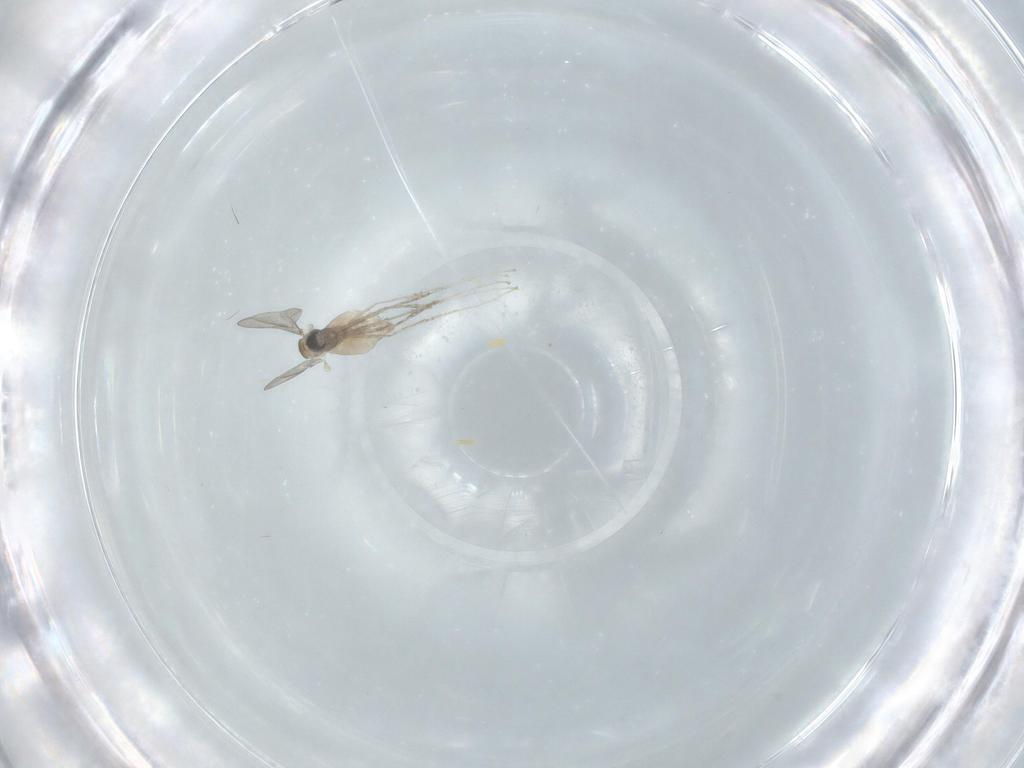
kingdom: Animalia
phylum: Arthropoda
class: Insecta
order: Diptera
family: Cecidomyiidae
